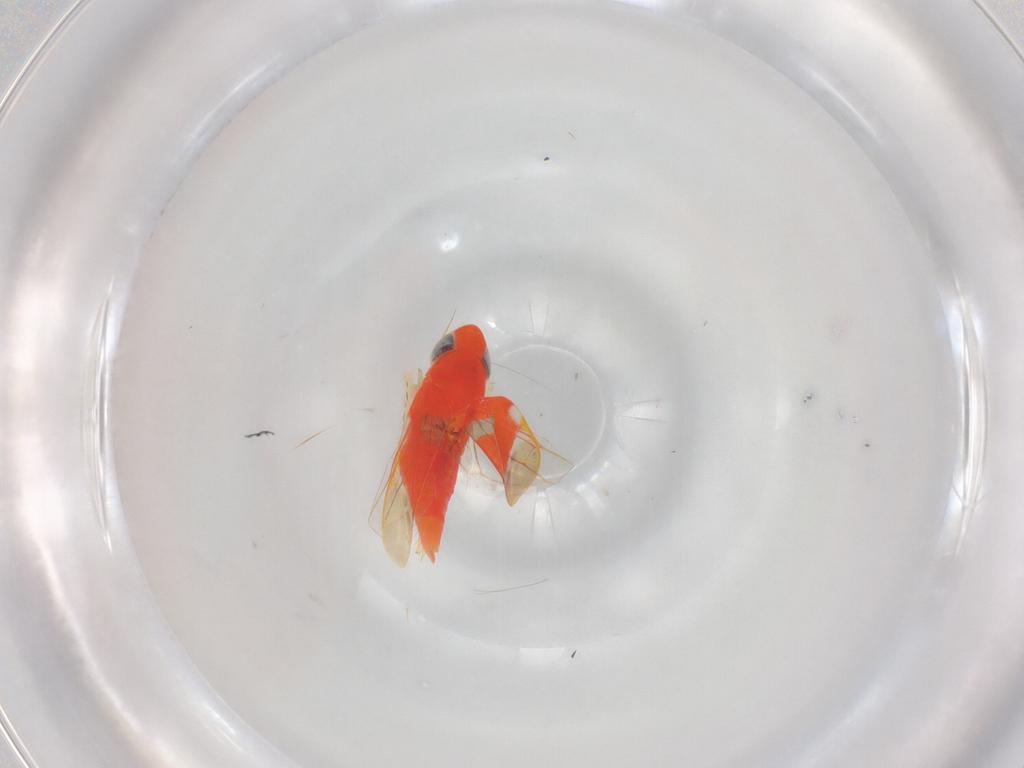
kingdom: Animalia
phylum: Arthropoda
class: Insecta
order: Hemiptera
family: Cicadellidae
